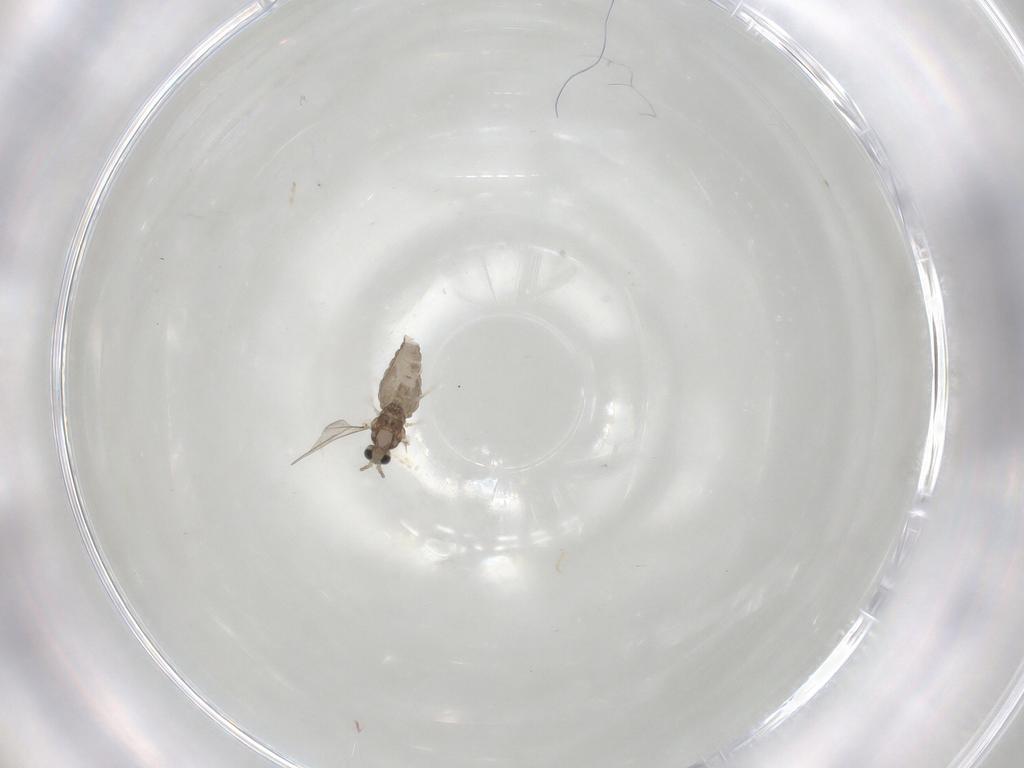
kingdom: Animalia
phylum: Arthropoda
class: Insecta
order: Diptera
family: Cecidomyiidae
